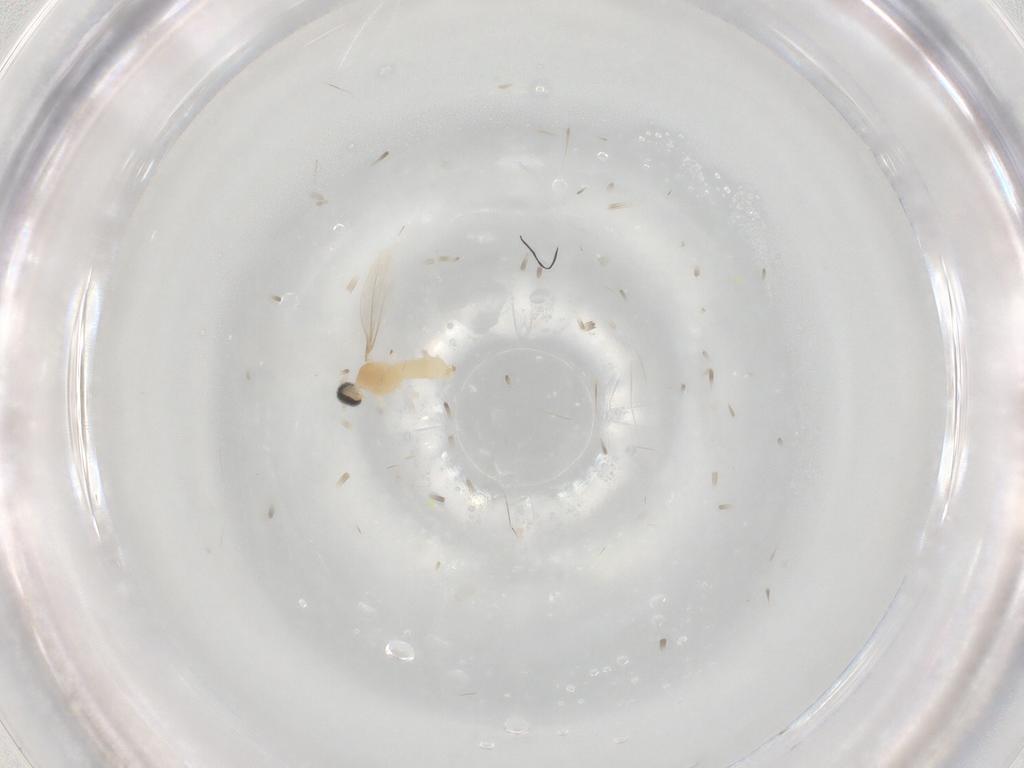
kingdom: Animalia
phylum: Arthropoda
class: Insecta
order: Diptera
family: Cecidomyiidae
